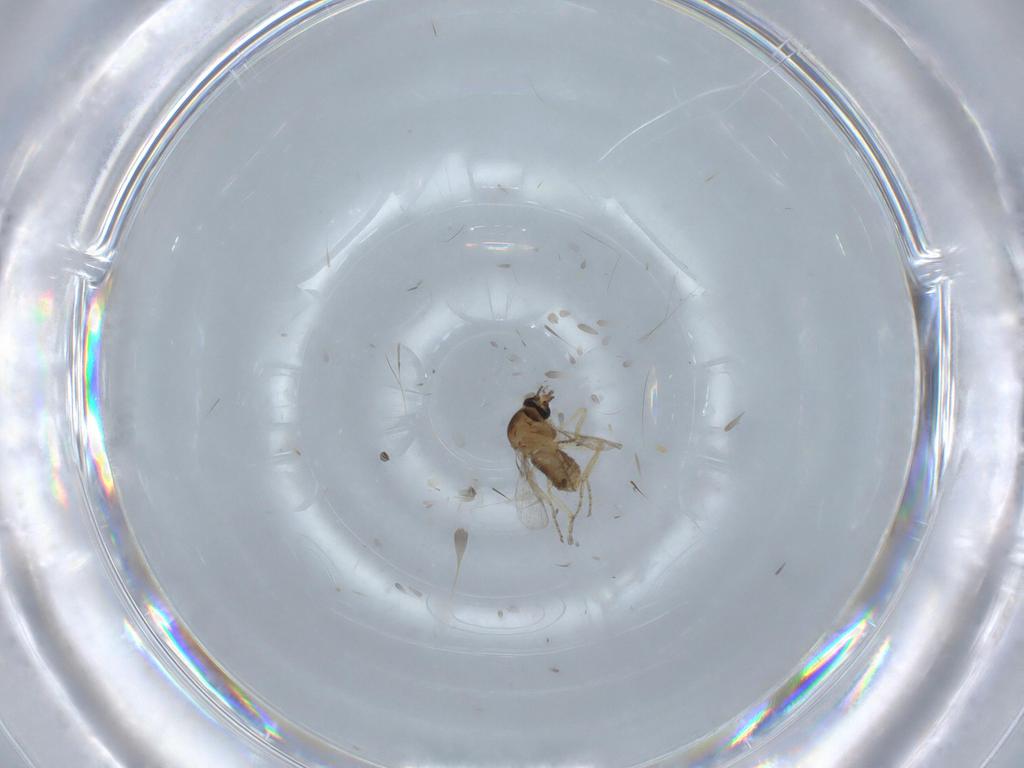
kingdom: Animalia
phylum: Arthropoda
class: Insecta
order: Diptera
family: Ceratopogonidae
